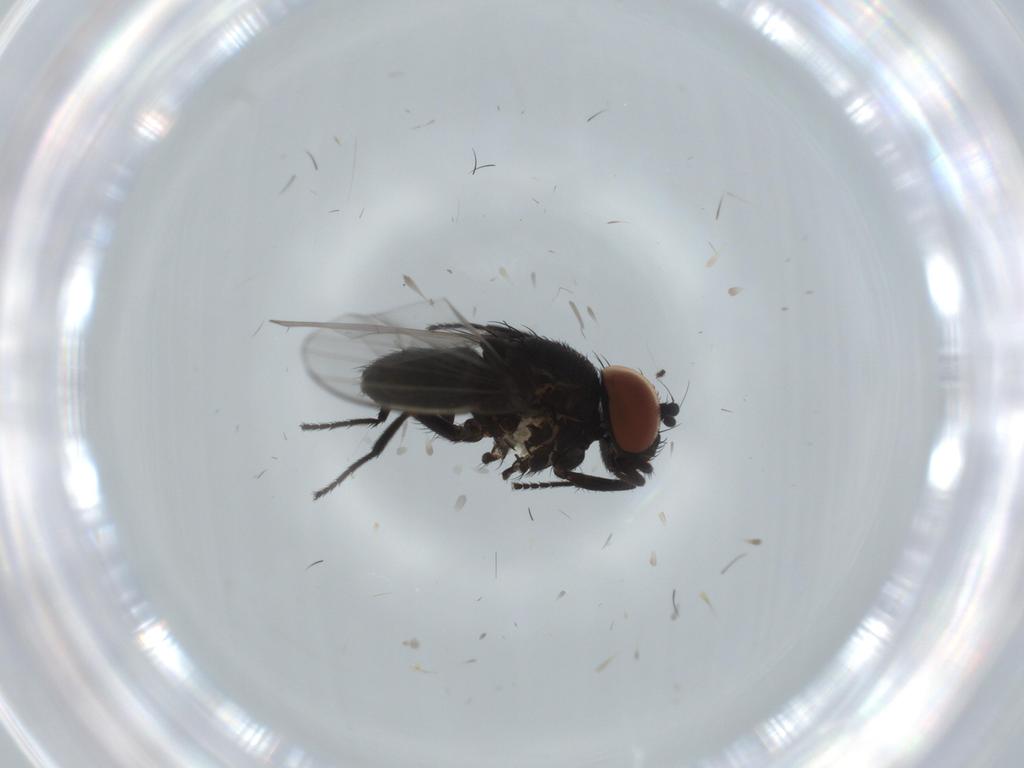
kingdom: Animalia
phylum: Arthropoda
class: Insecta
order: Diptera
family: Milichiidae
